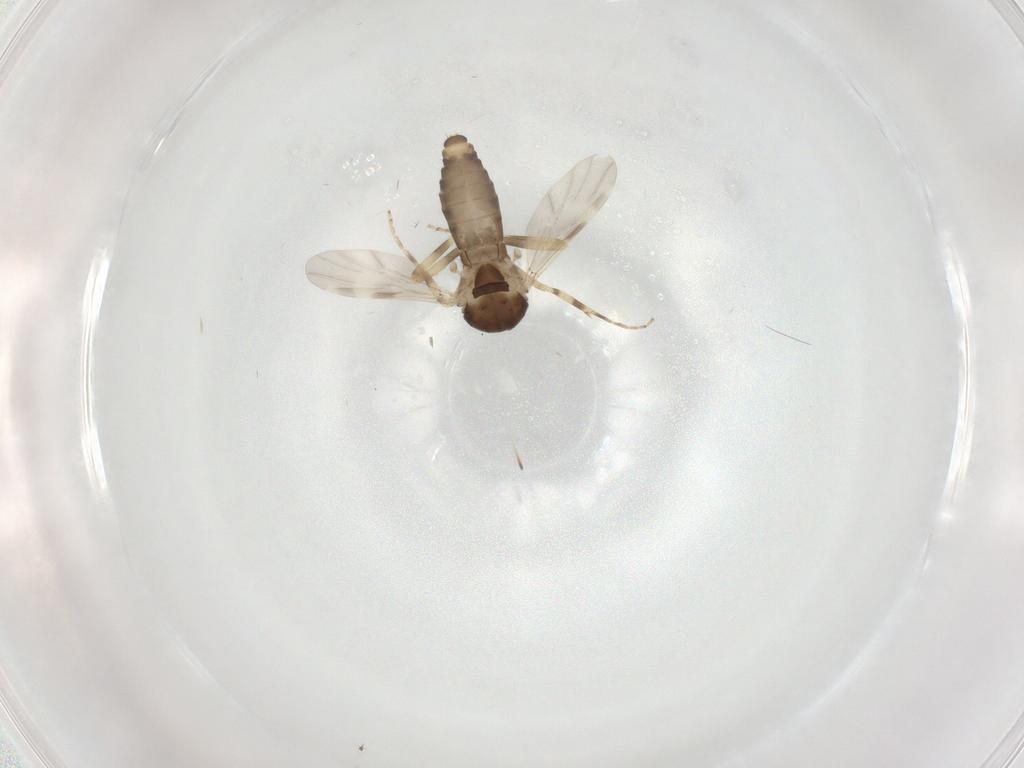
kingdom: Animalia
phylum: Arthropoda
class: Insecta
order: Diptera
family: Ceratopogonidae
